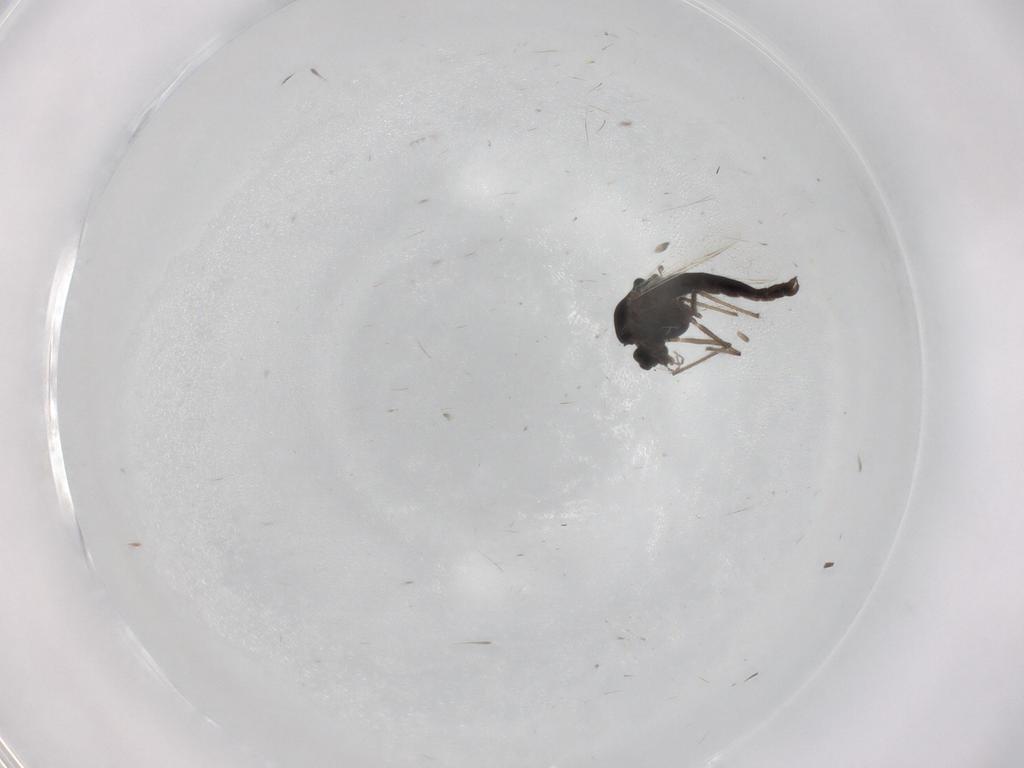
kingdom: Animalia
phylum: Arthropoda
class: Insecta
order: Diptera
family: Chironomidae
